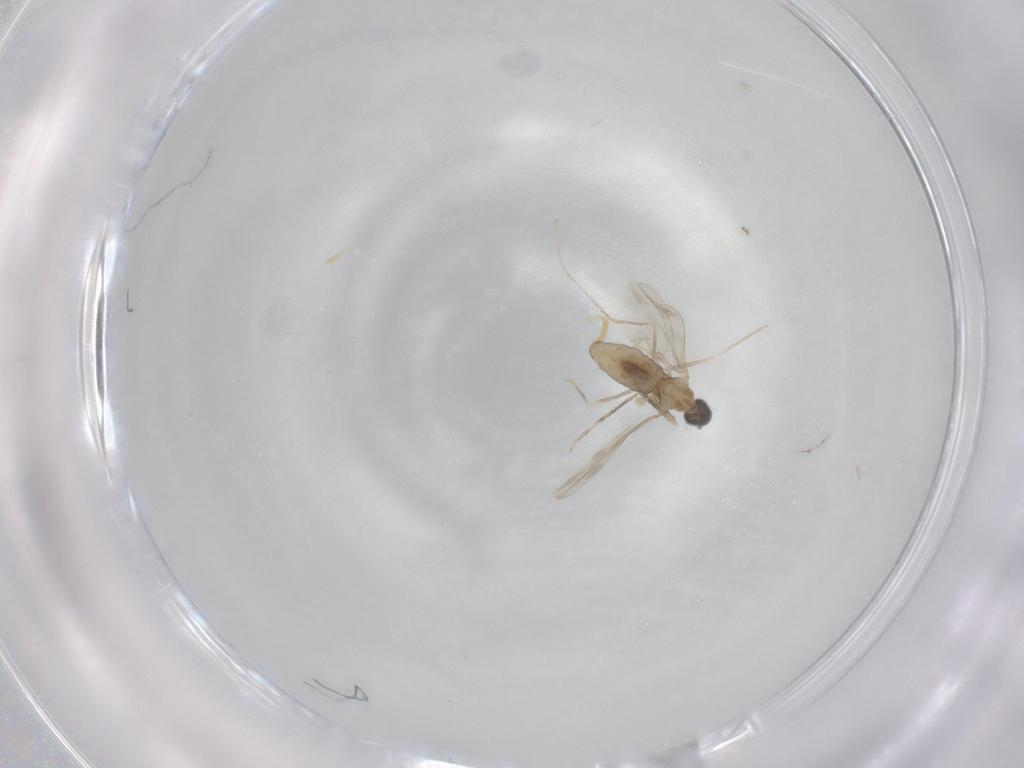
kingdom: Animalia
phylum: Arthropoda
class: Insecta
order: Diptera
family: Cecidomyiidae
